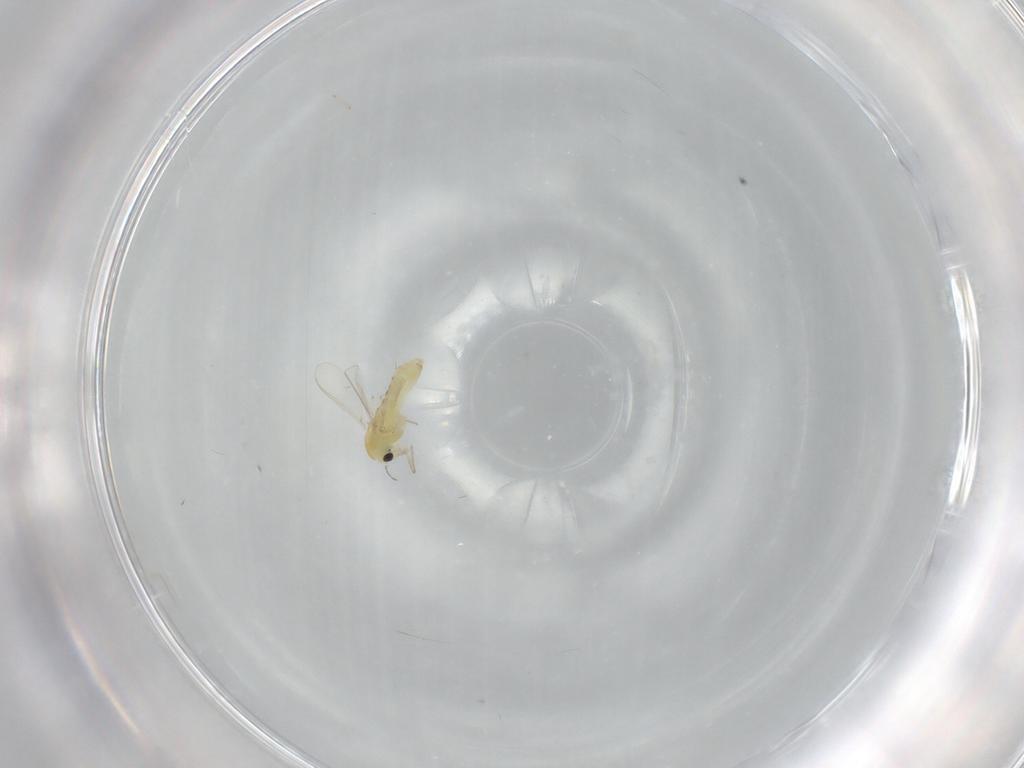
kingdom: Animalia
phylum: Arthropoda
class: Insecta
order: Diptera
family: Chironomidae
